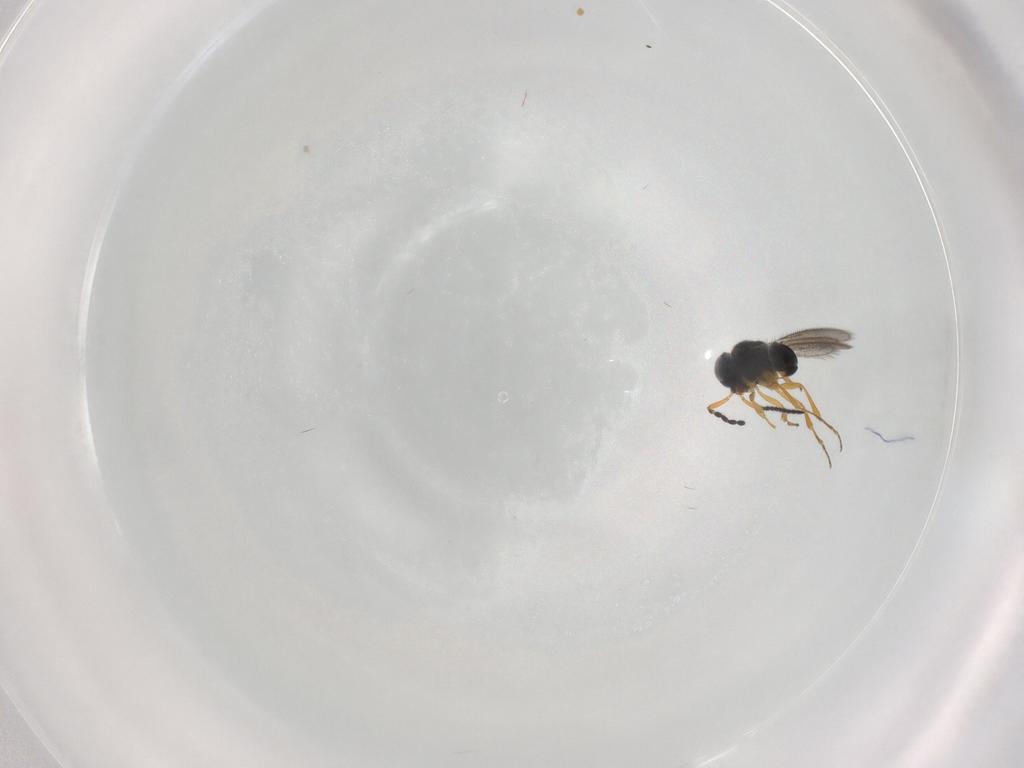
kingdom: Animalia
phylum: Arthropoda
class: Insecta
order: Hymenoptera
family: Scelionidae
